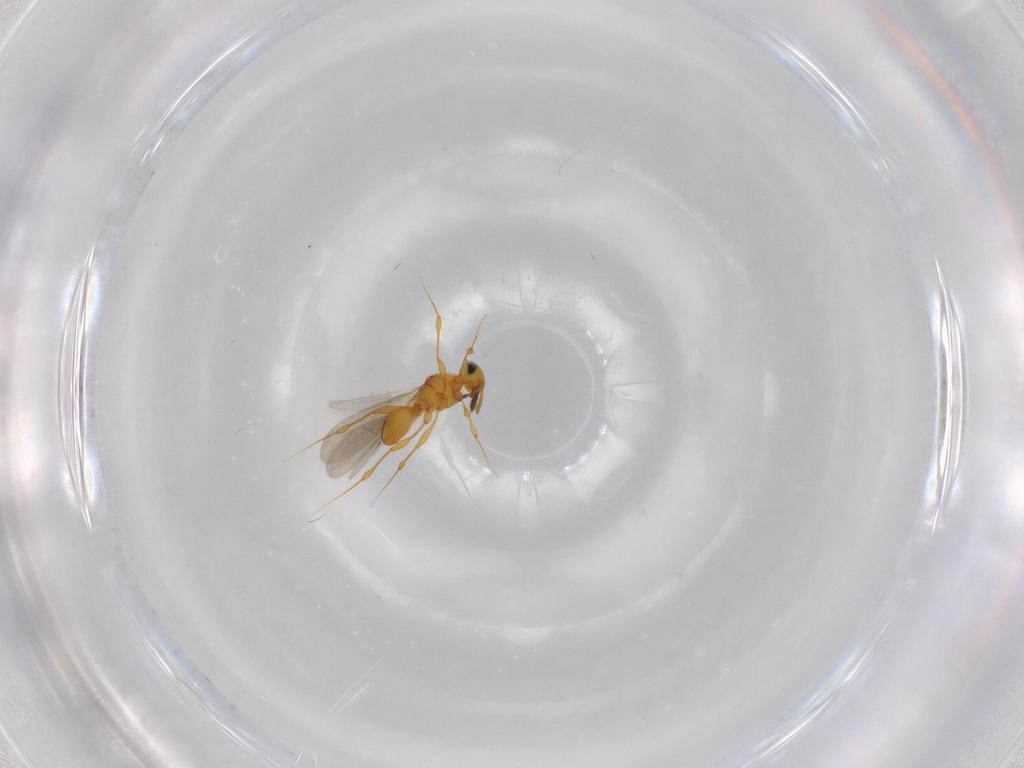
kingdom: Animalia
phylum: Arthropoda
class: Insecta
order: Hymenoptera
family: Platygastridae
